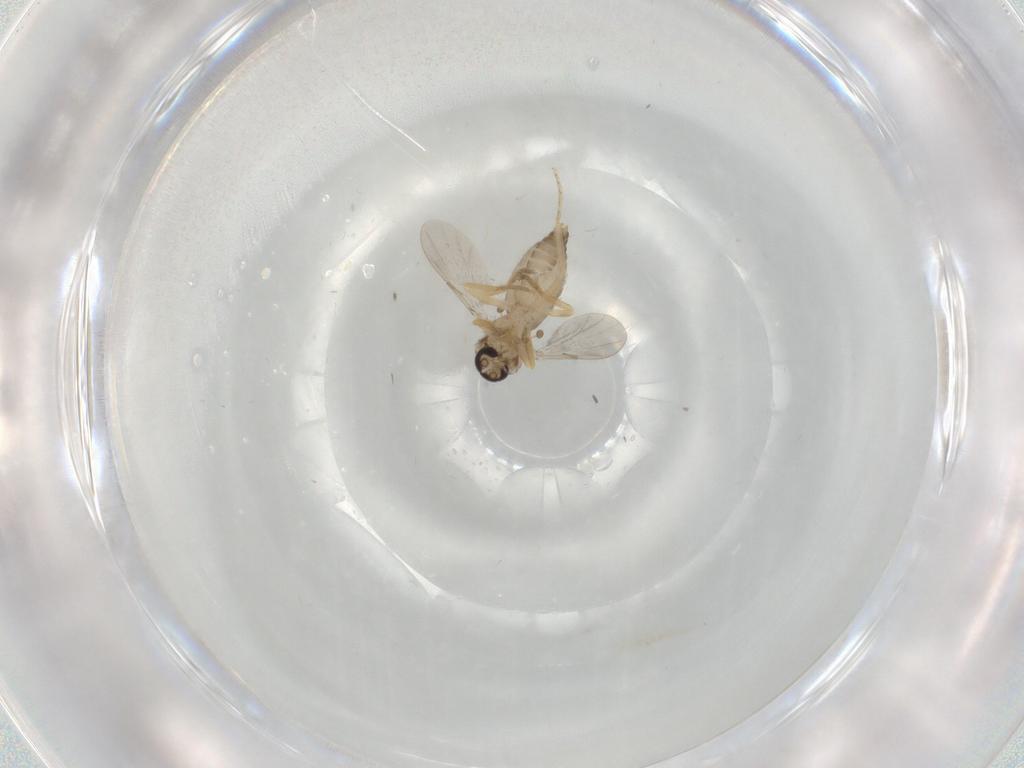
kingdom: Animalia
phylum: Arthropoda
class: Insecta
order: Diptera
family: Ceratopogonidae
